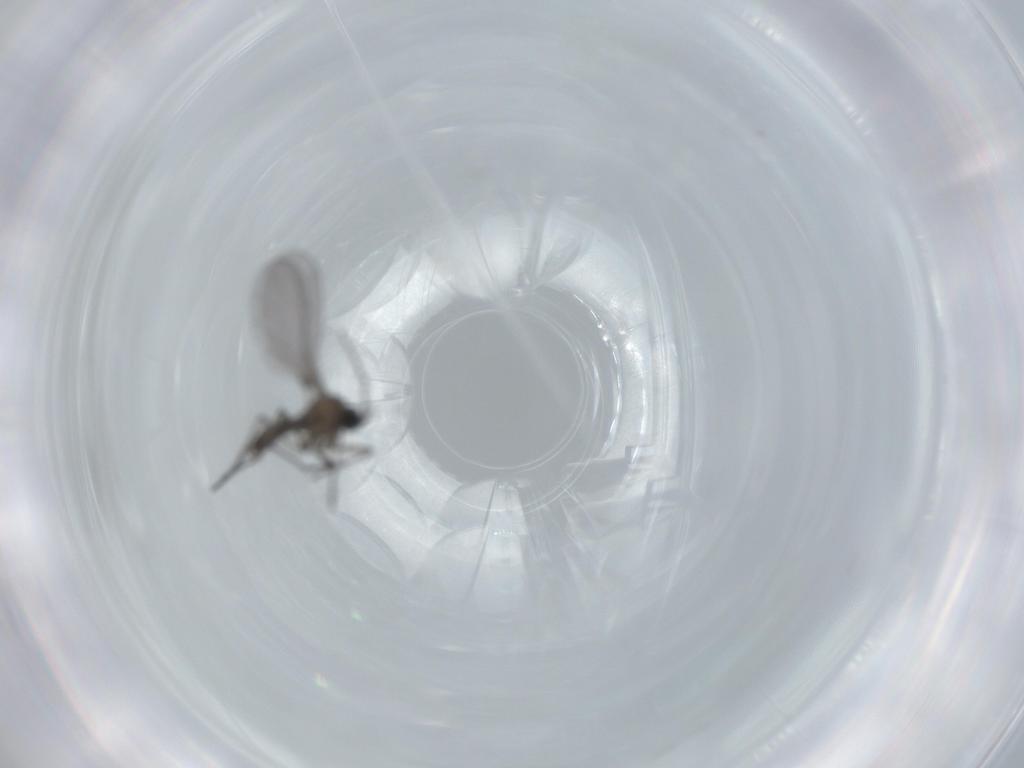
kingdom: Animalia
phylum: Arthropoda
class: Insecta
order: Diptera
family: Sciaridae
